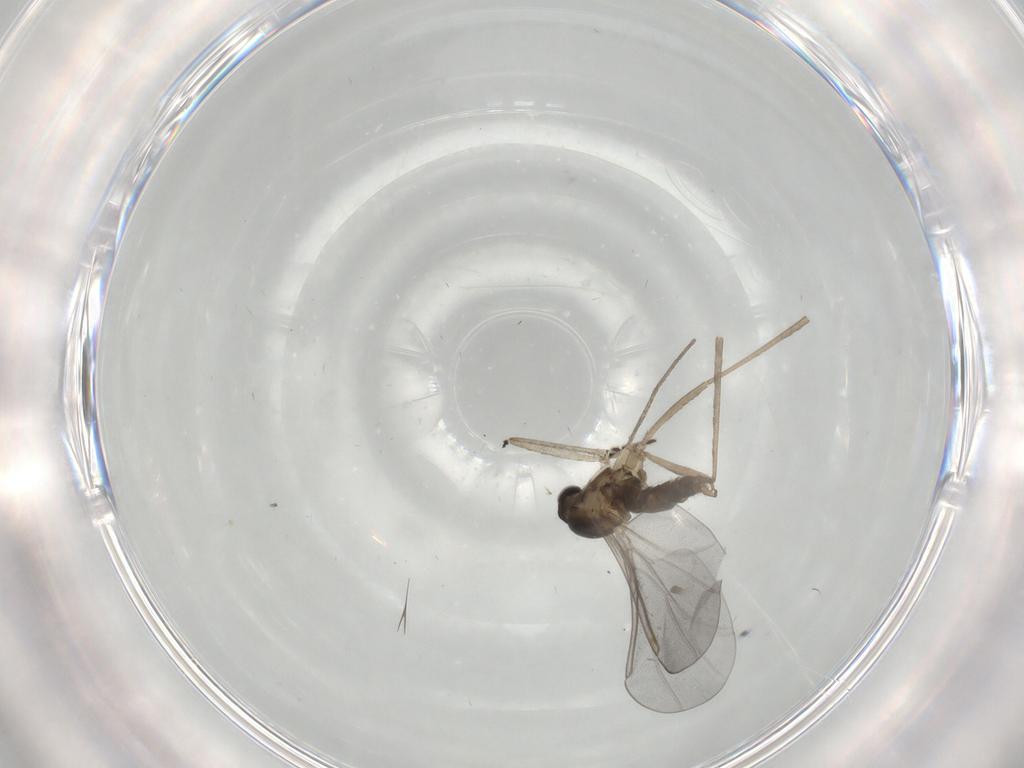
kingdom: Animalia
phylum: Arthropoda
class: Insecta
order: Diptera
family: Cecidomyiidae
